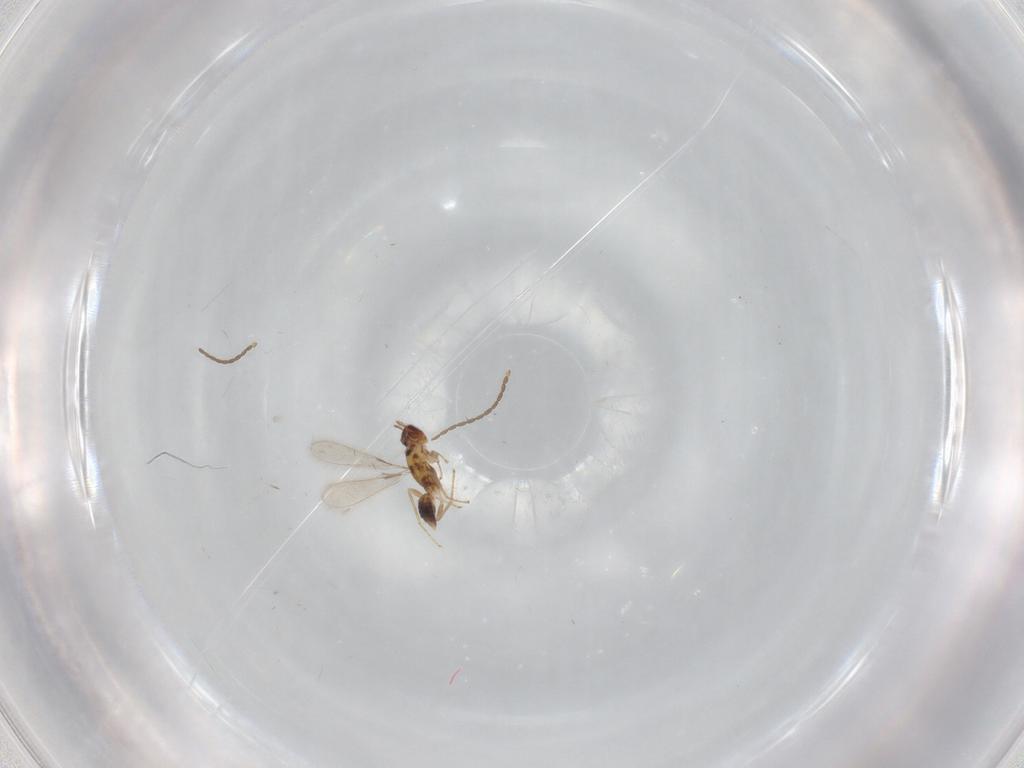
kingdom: Animalia
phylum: Arthropoda
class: Insecta
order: Hymenoptera
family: Mymaridae
